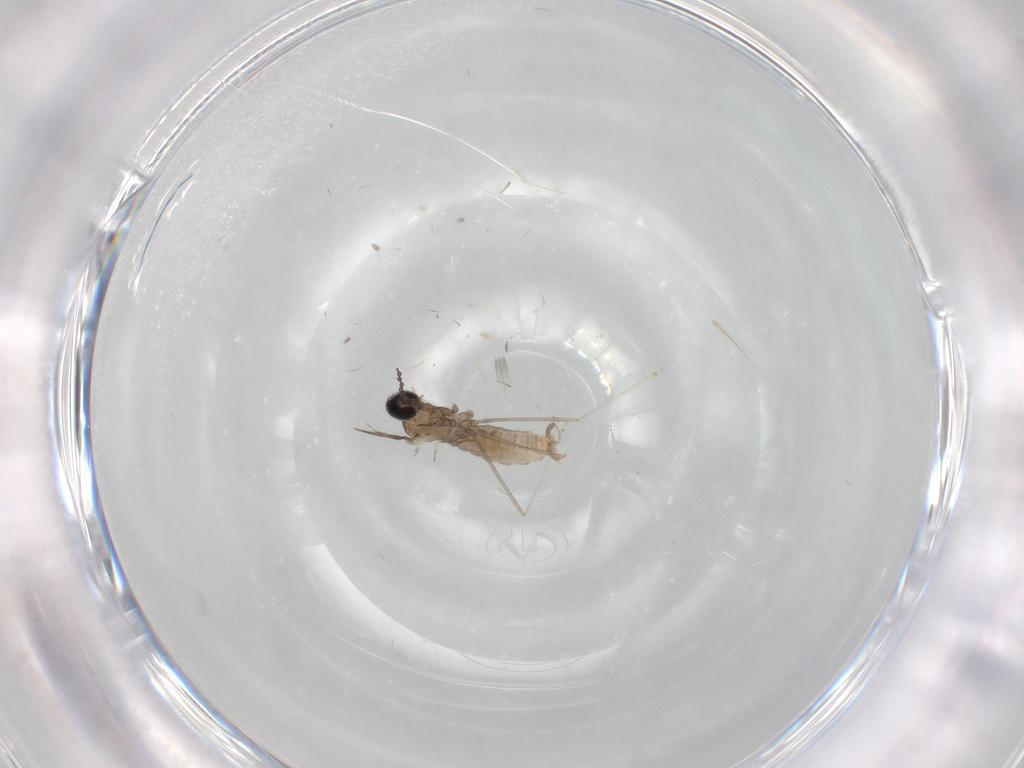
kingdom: Animalia
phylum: Arthropoda
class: Insecta
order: Diptera
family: Cecidomyiidae
